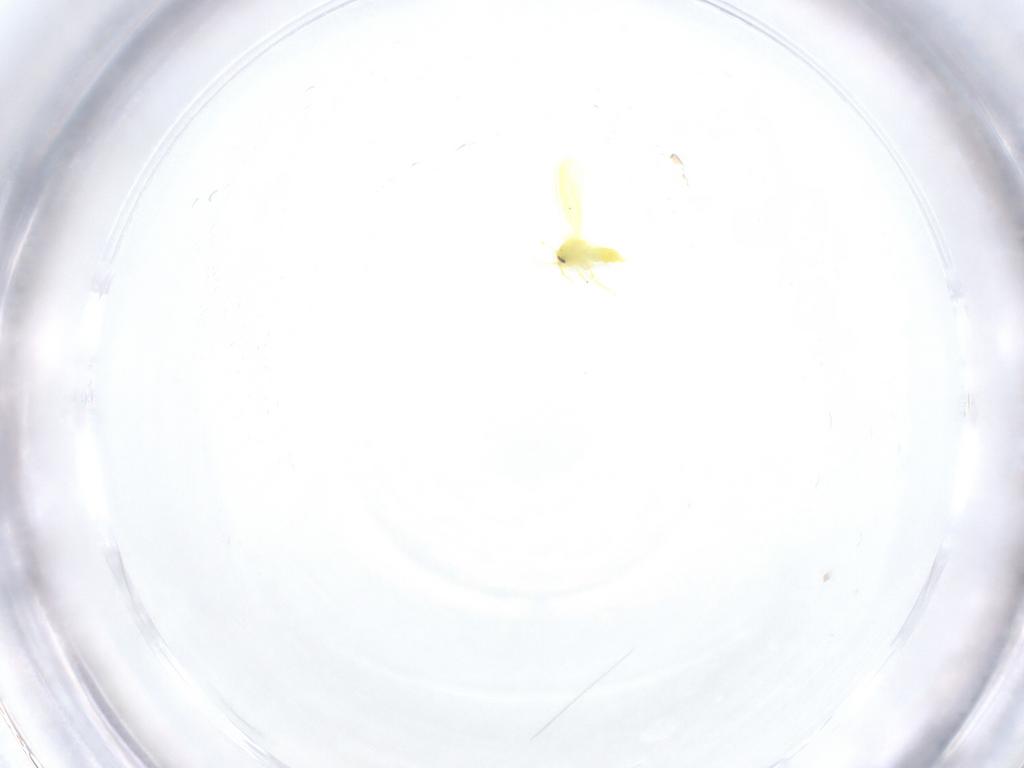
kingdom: Animalia
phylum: Arthropoda
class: Insecta
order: Hemiptera
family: Aleyrodidae
